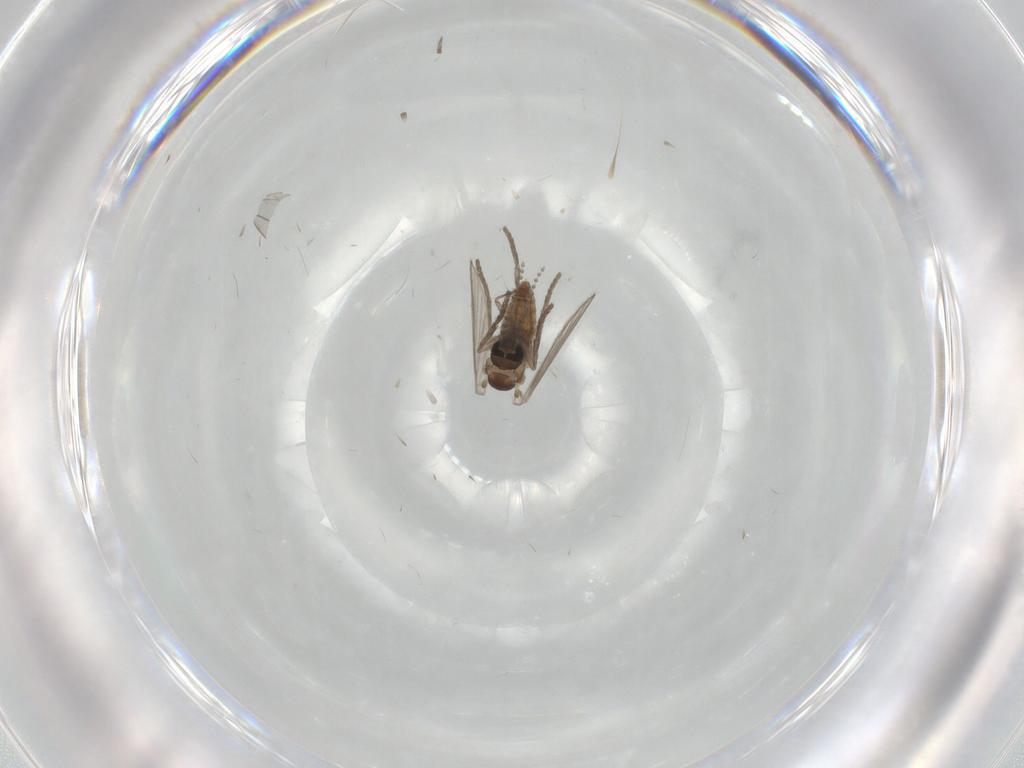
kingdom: Animalia
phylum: Arthropoda
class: Insecta
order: Diptera
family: Psychodidae
